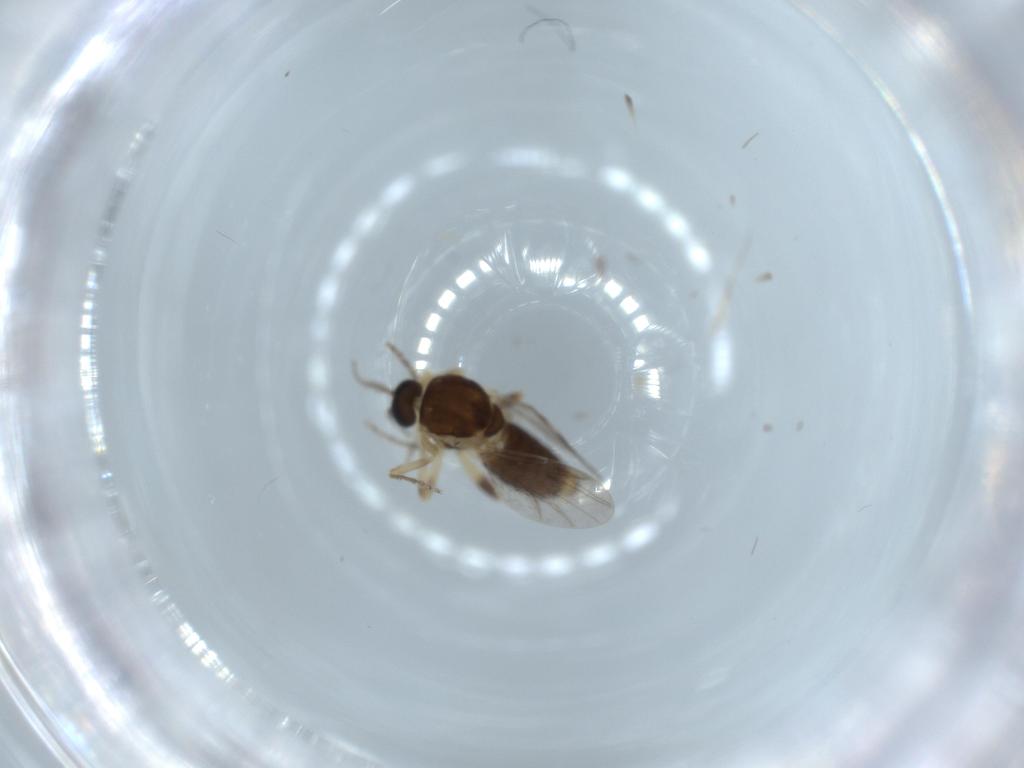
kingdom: Animalia
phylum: Arthropoda
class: Insecta
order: Diptera
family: Ceratopogonidae
